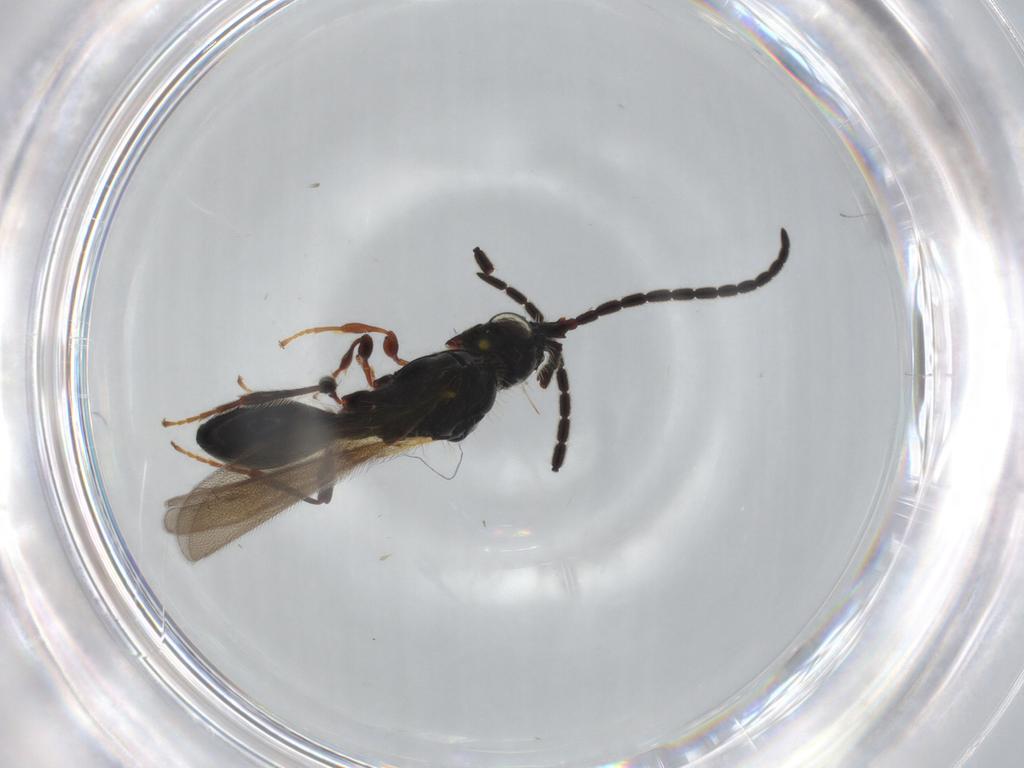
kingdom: Animalia
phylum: Arthropoda
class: Insecta
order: Hymenoptera
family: Diapriidae
